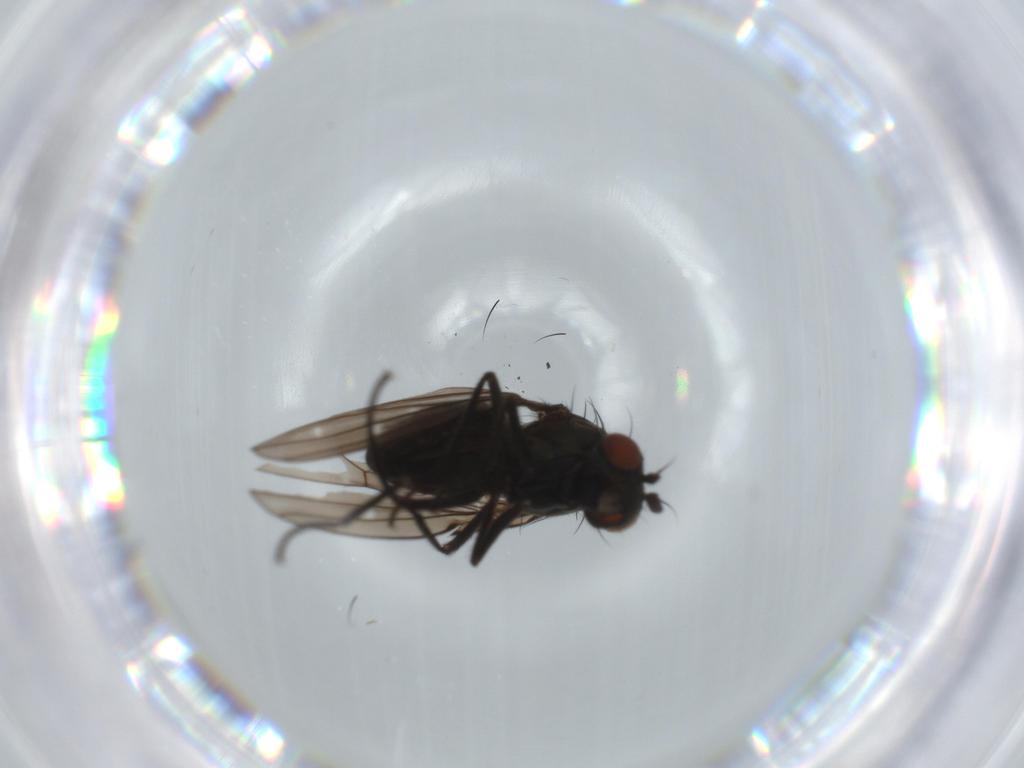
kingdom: Animalia
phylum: Arthropoda
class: Insecta
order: Diptera
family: Ephydridae
